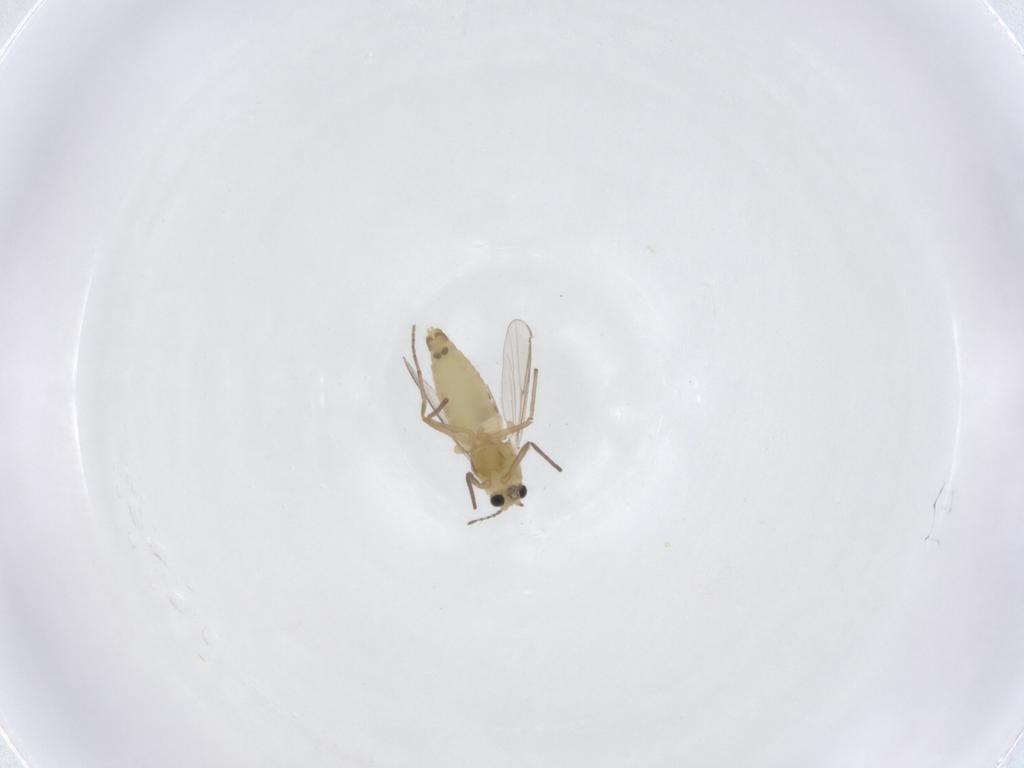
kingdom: Animalia
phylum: Arthropoda
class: Insecta
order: Diptera
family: Chironomidae
